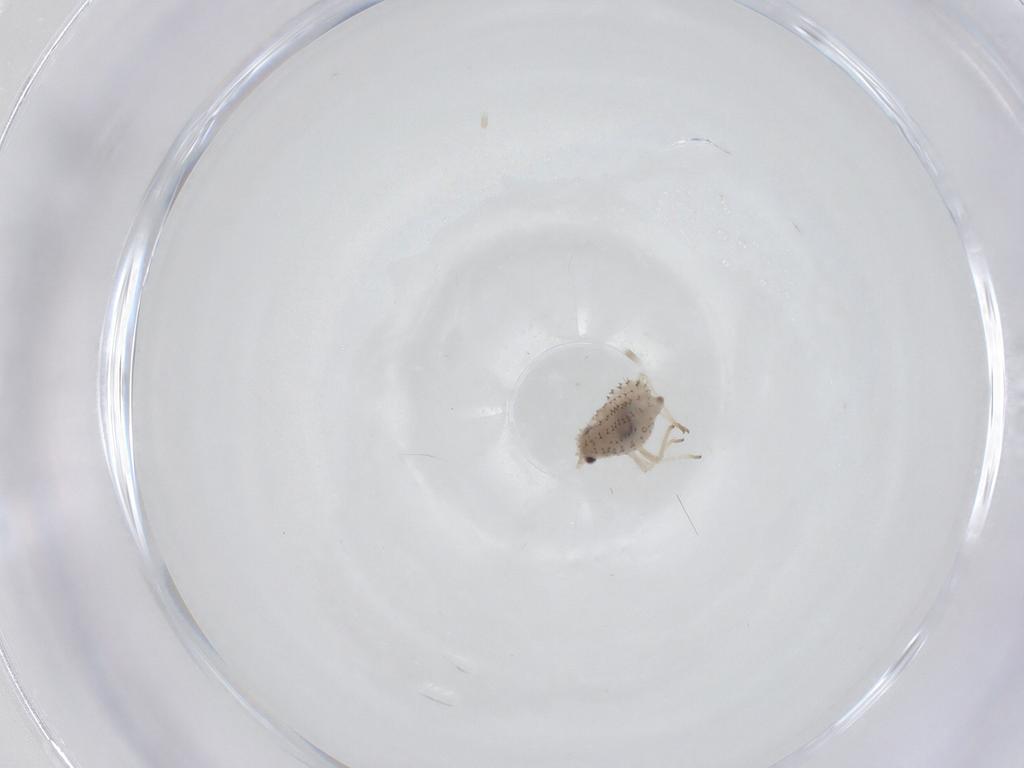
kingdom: Animalia
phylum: Arthropoda
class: Insecta
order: Hemiptera
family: Aphididae
